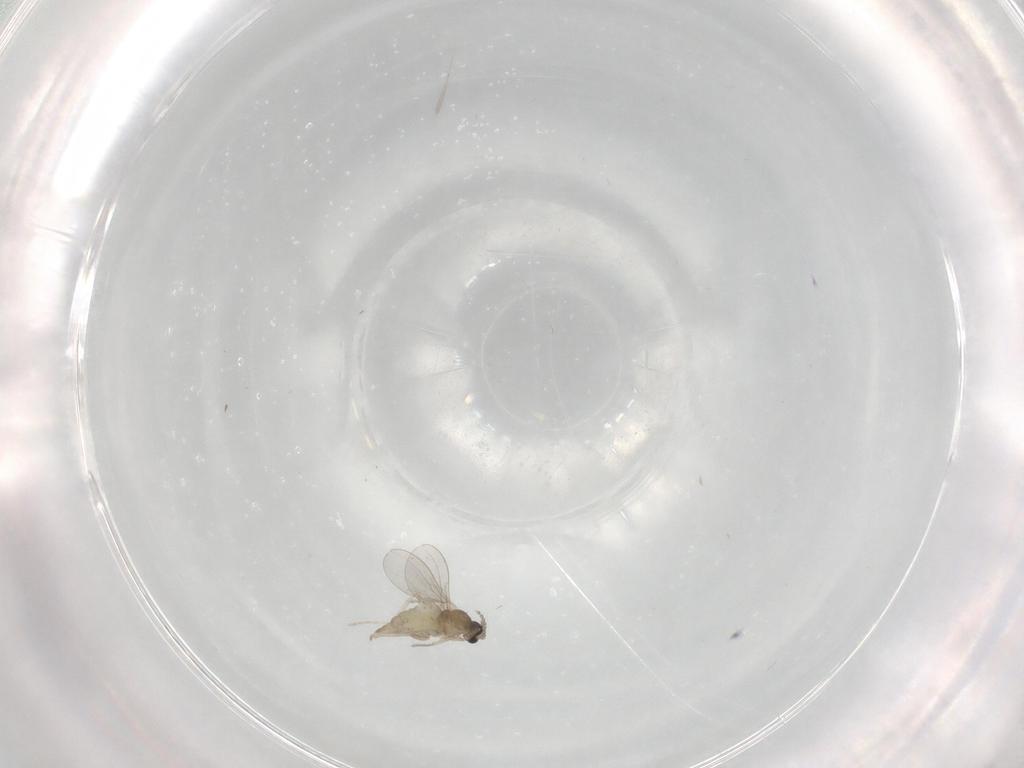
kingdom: Animalia
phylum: Arthropoda
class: Insecta
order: Diptera
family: Cecidomyiidae
